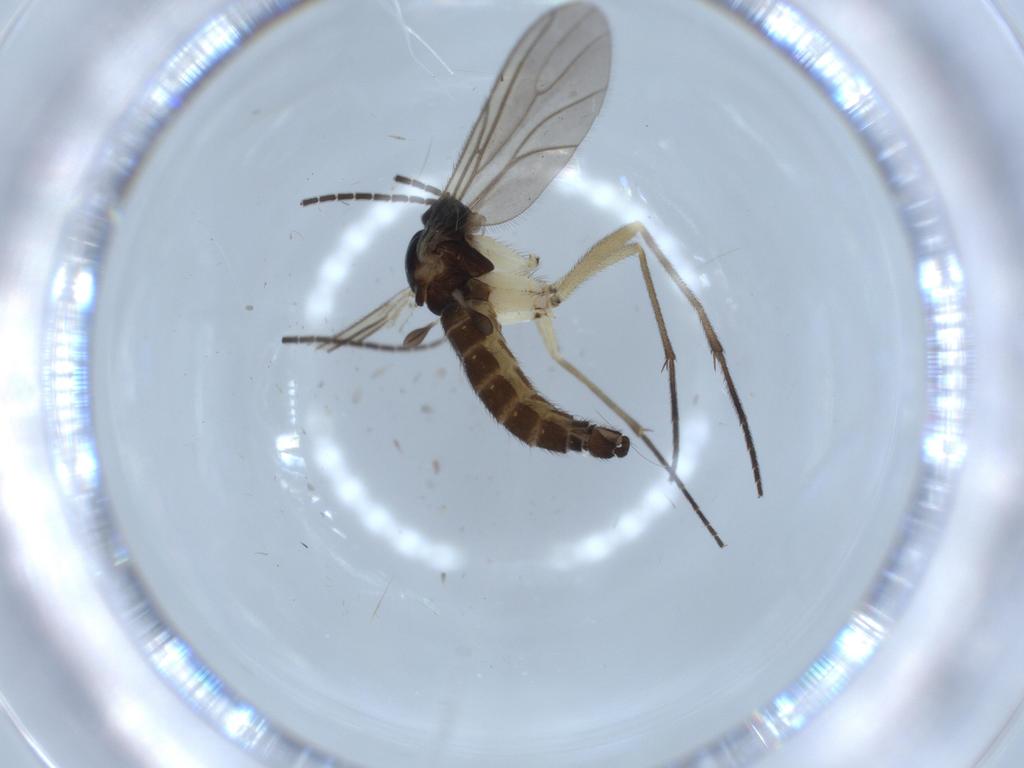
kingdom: Animalia
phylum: Arthropoda
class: Insecta
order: Diptera
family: Sciaridae
